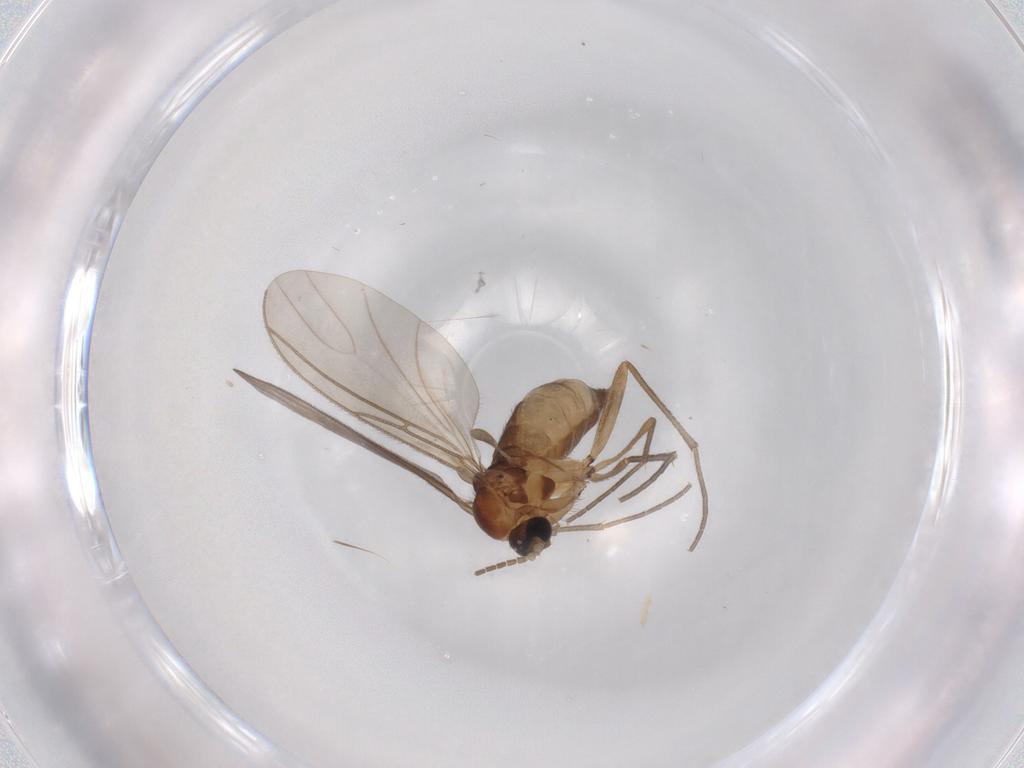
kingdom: Animalia
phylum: Arthropoda
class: Insecta
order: Diptera
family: Sciaridae
